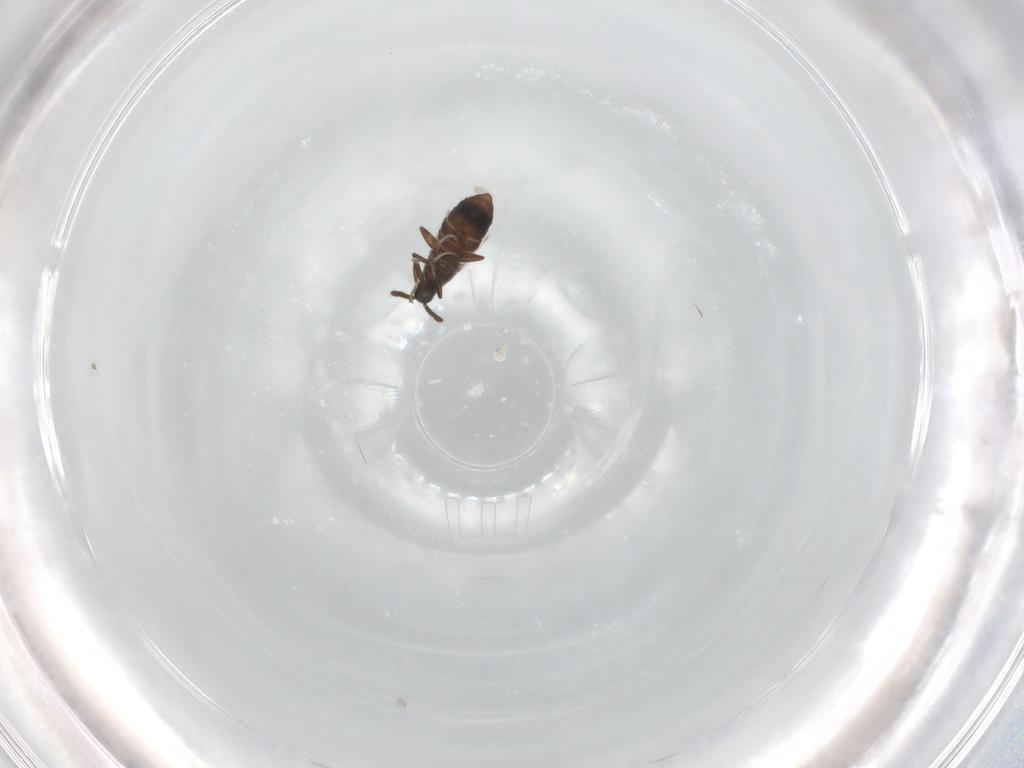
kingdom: Animalia
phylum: Arthropoda
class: Insecta
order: Diptera
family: Scatopsidae
